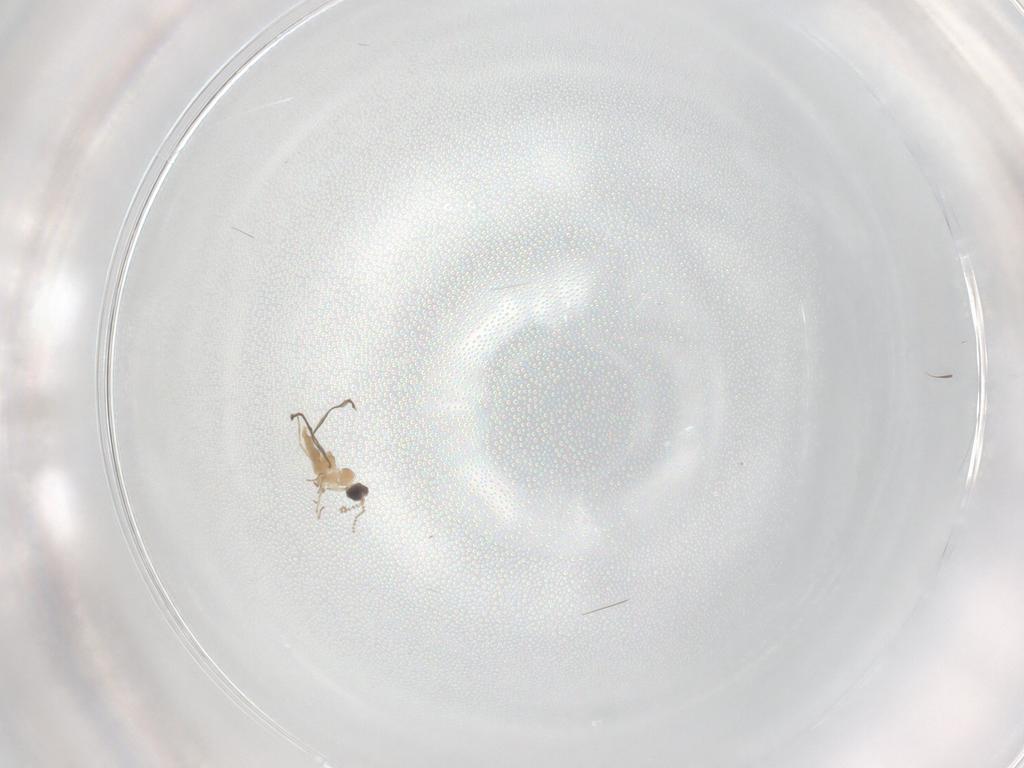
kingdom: Animalia
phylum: Arthropoda
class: Insecta
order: Diptera
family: Cecidomyiidae
